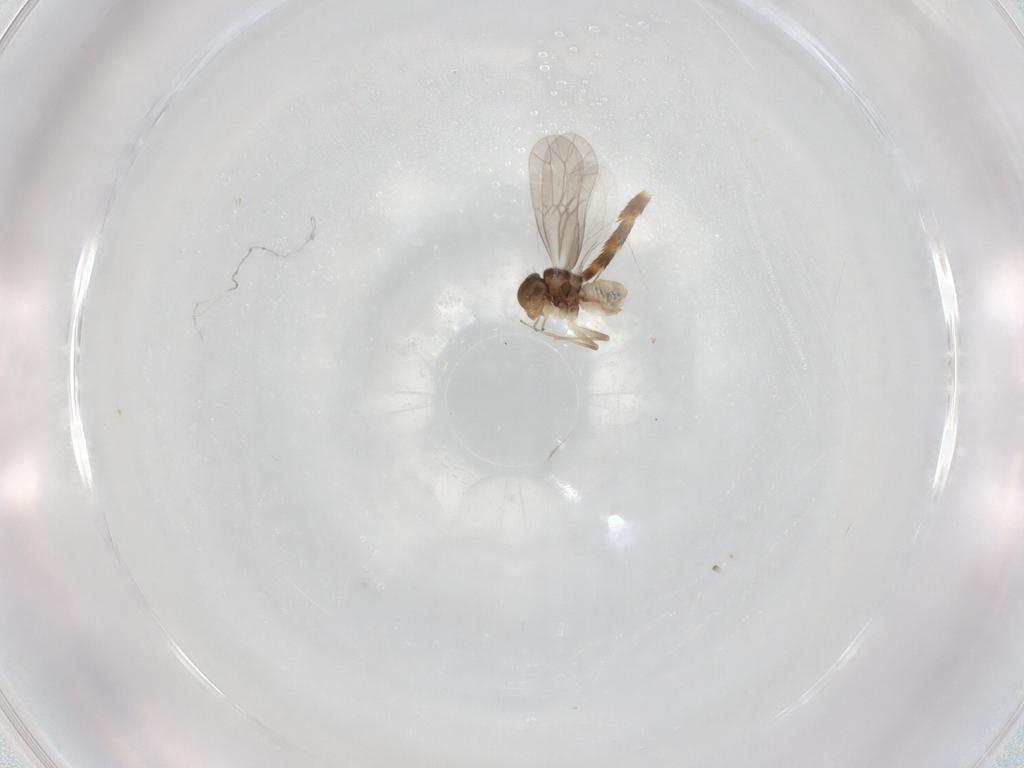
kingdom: Animalia
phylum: Arthropoda
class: Insecta
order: Psocodea
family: Peripsocidae
